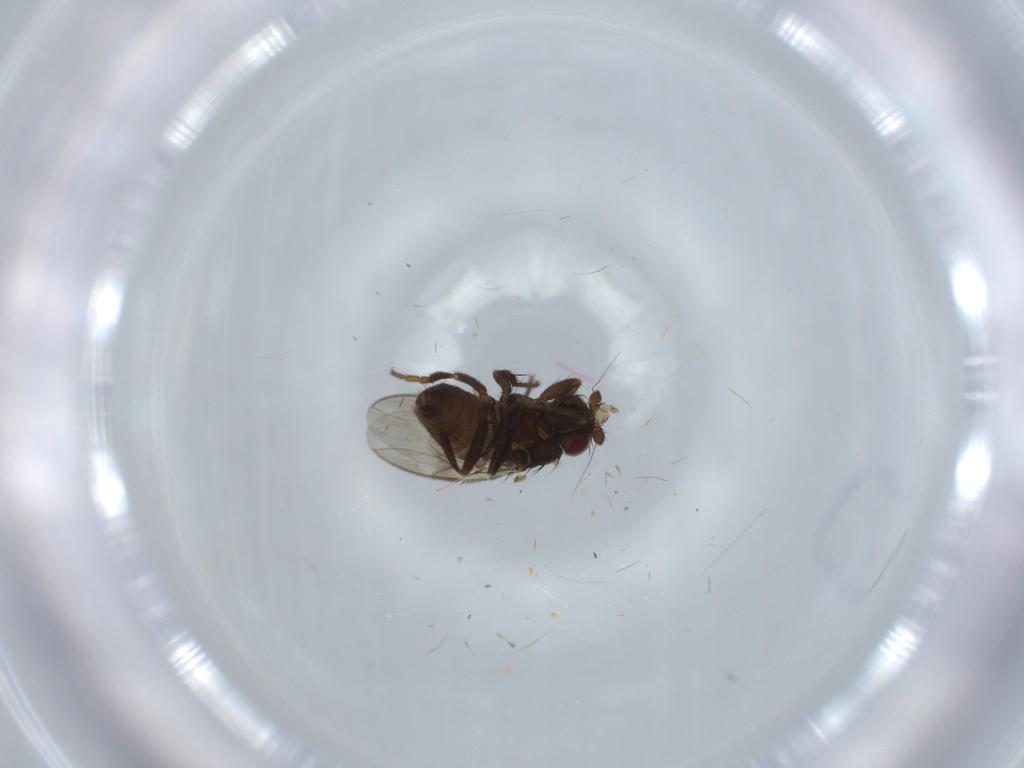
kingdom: Animalia
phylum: Arthropoda
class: Insecta
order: Diptera
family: Sphaeroceridae
